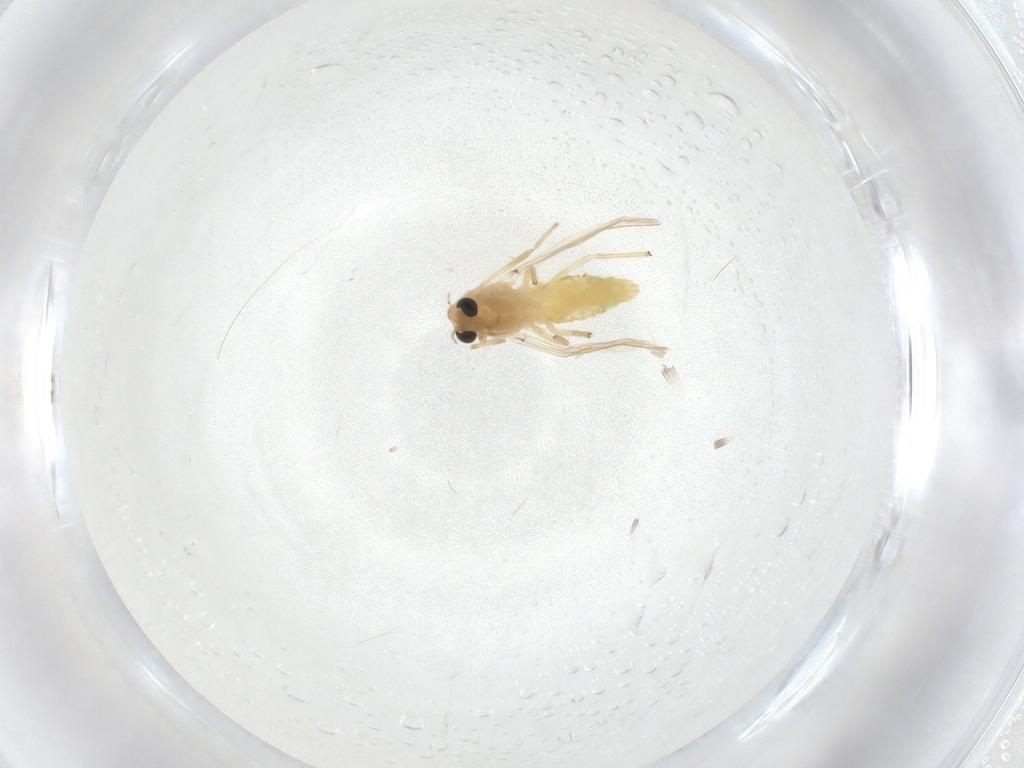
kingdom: Animalia
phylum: Arthropoda
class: Insecta
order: Diptera
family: Chironomidae
